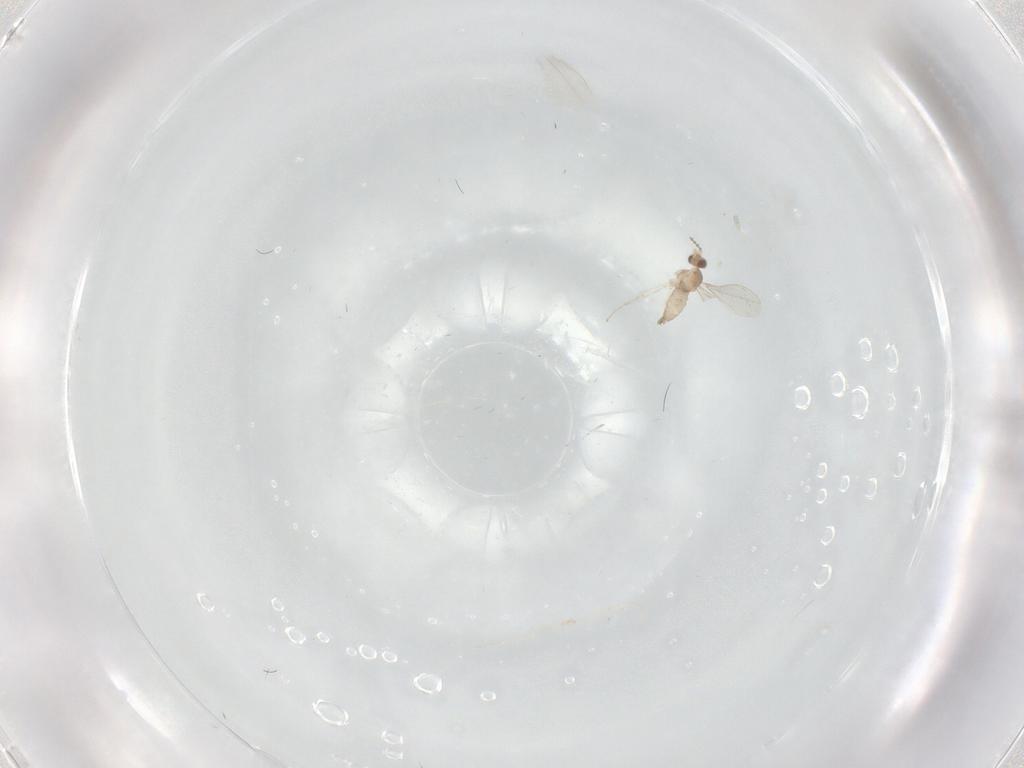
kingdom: Animalia
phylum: Arthropoda
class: Insecta
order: Diptera
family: Cecidomyiidae
